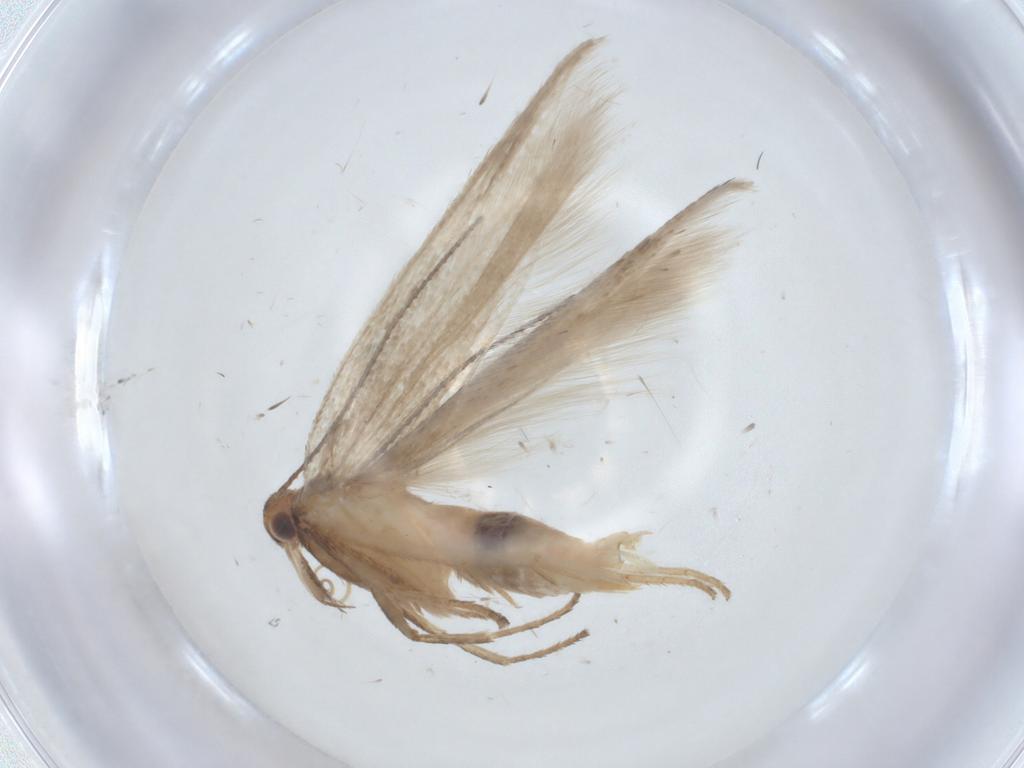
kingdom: Animalia
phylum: Arthropoda
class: Insecta
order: Lepidoptera
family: Gelechiidae
